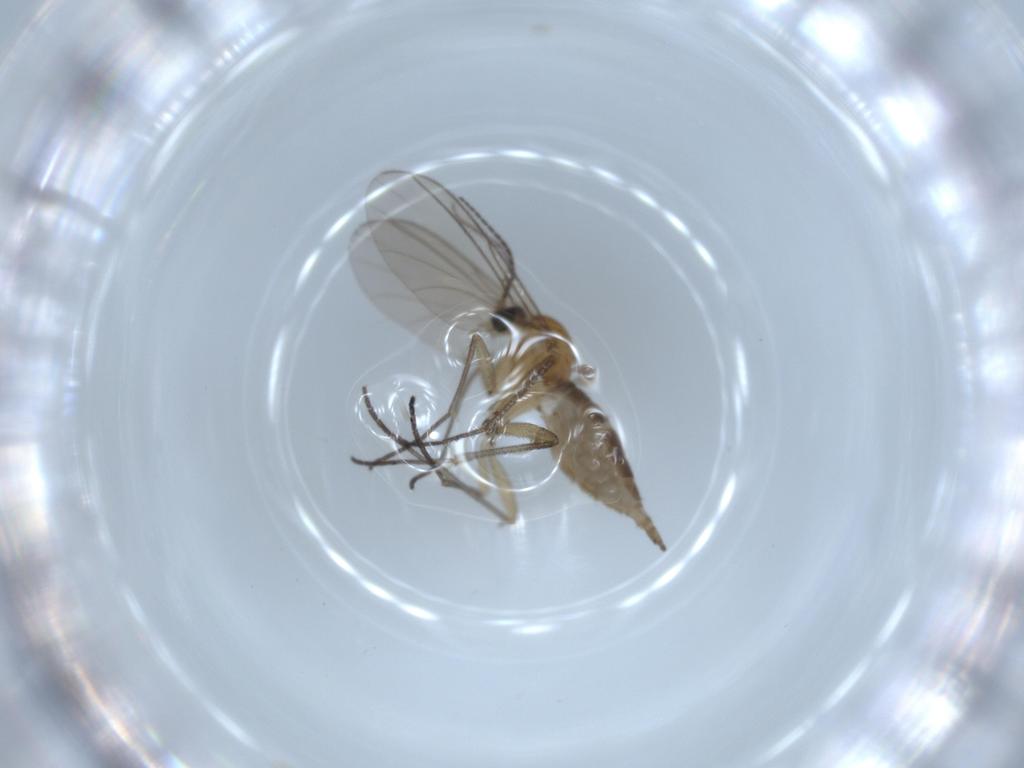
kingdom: Animalia
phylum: Arthropoda
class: Insecta
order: Diptera
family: Sciaridae
